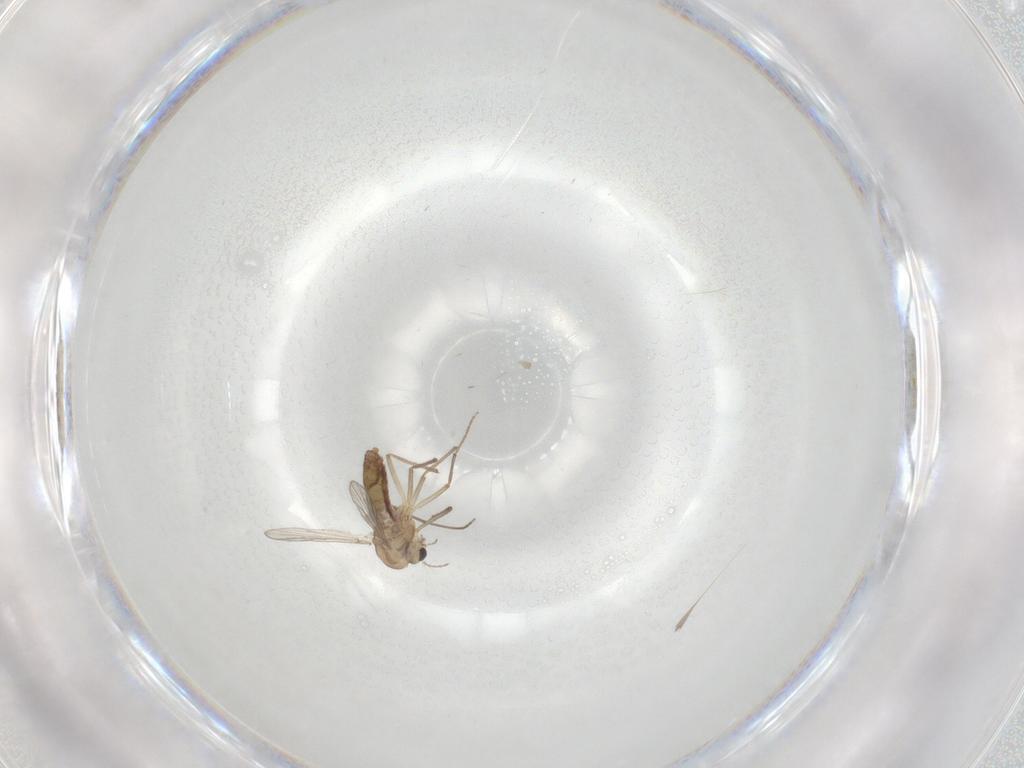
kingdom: Animalia
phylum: Arthropoda
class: Insecta
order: Diptera
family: Chironomidae
